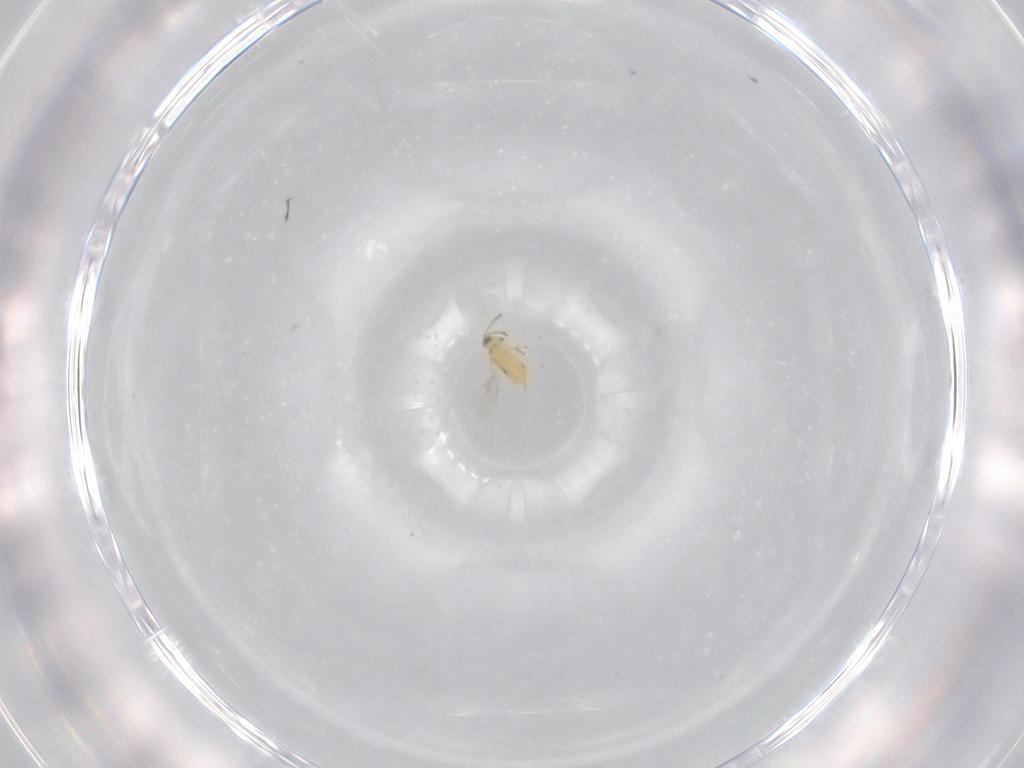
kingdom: Animalia
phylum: Arthropoda
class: Insecta
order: Hymenoptera
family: Aphelinidae
